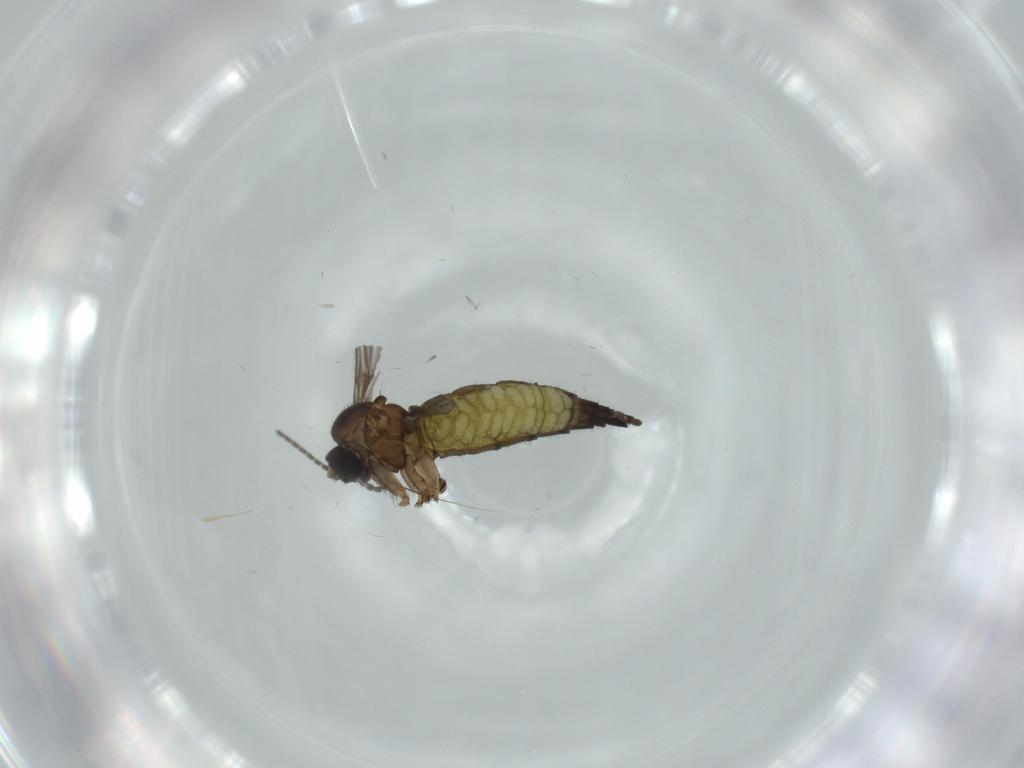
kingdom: Animalia
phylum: Arthropoda
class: Insecta
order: Diptera
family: Sciaridae
